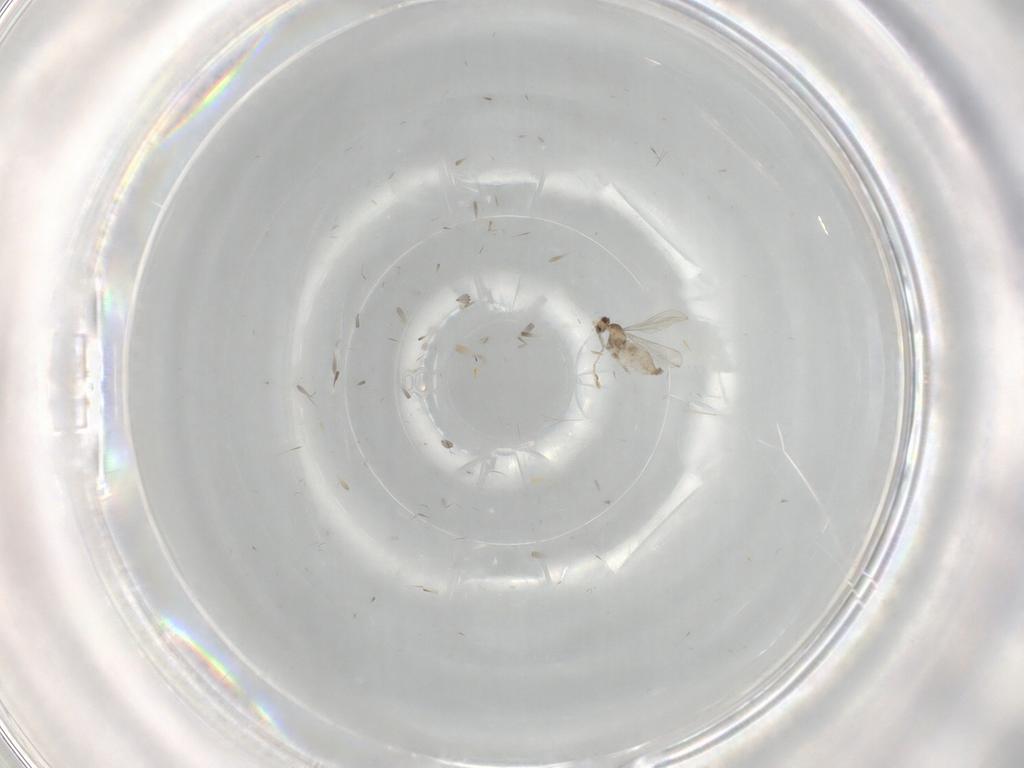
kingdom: Animalia
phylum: Arthropoda
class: Insecta
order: Diptera
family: Cecidomyiidae
